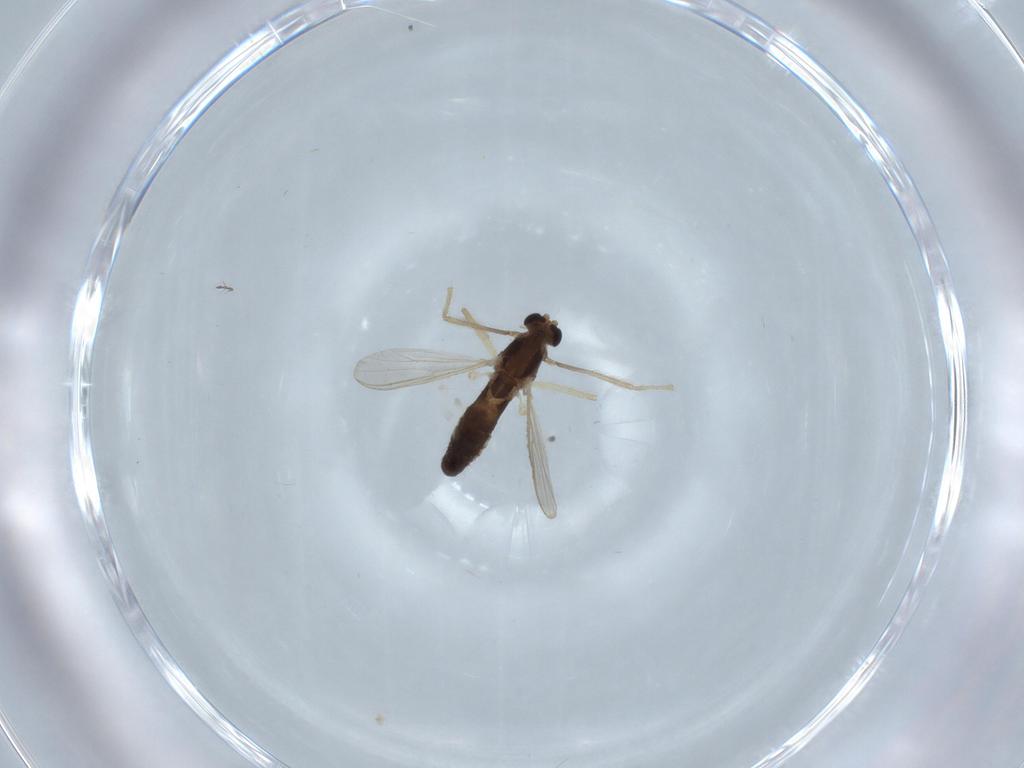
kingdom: Animalia
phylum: Arthropoda
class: Insecta
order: Diptera
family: Chironomidae
